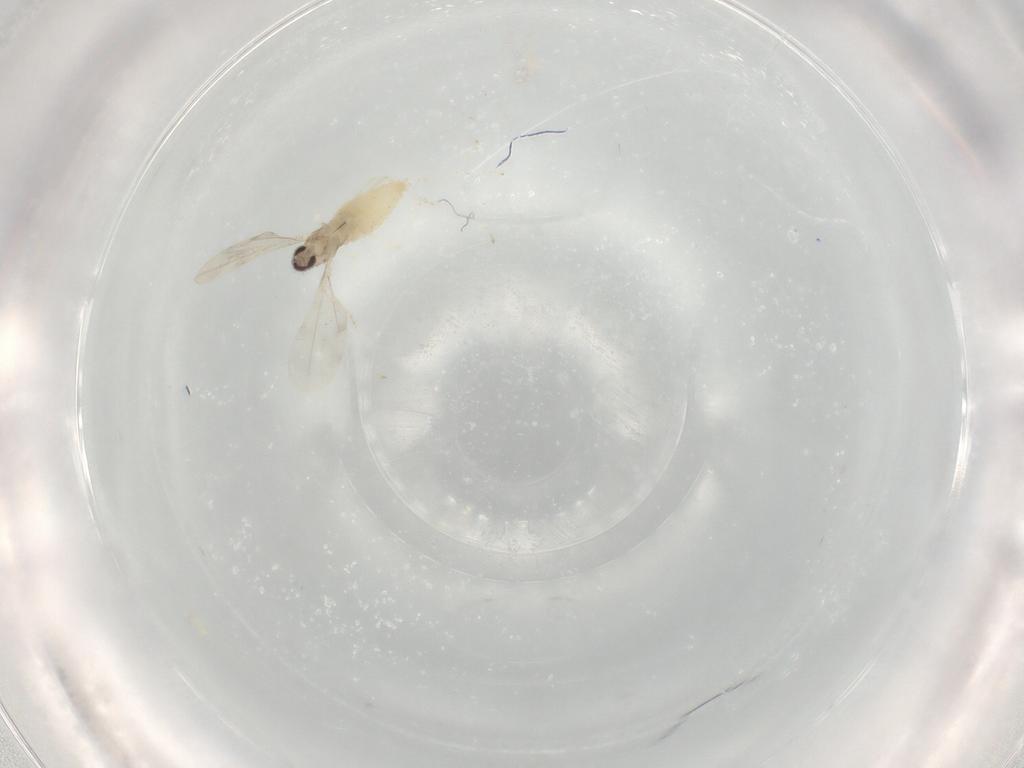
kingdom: Animalia
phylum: Arthropoda
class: Insecta
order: Diptera
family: Cecidomyiidae
